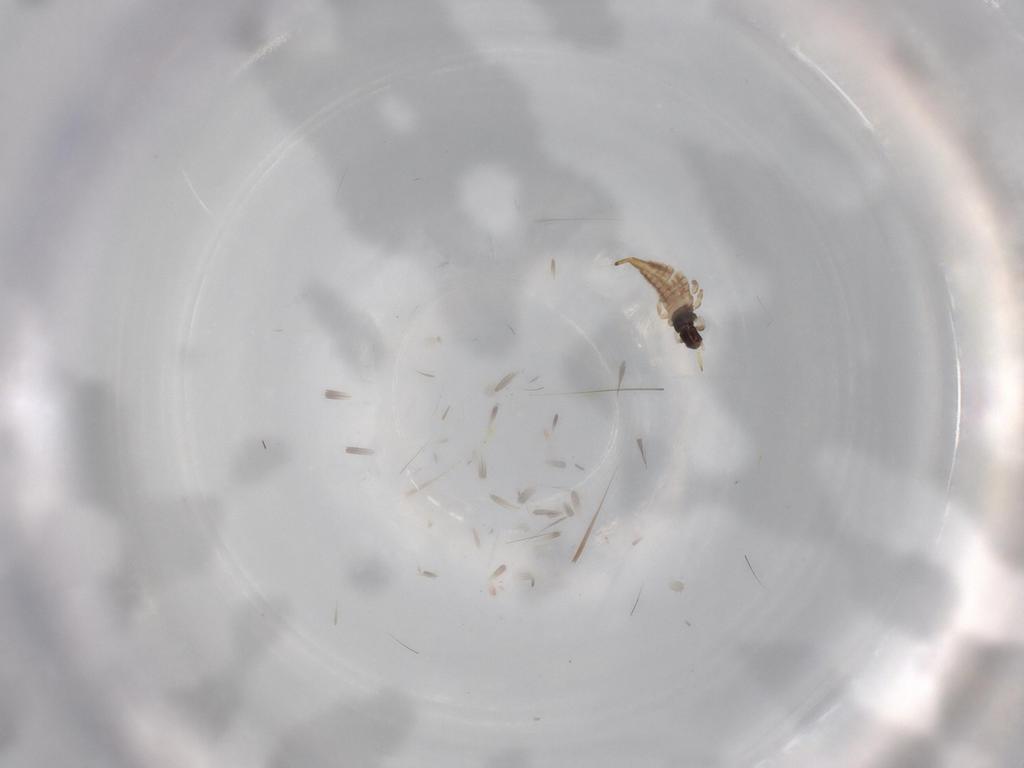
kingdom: Animalia
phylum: Arthropoda
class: Insecta
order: Thysanoptera
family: Phlaeothripidae
